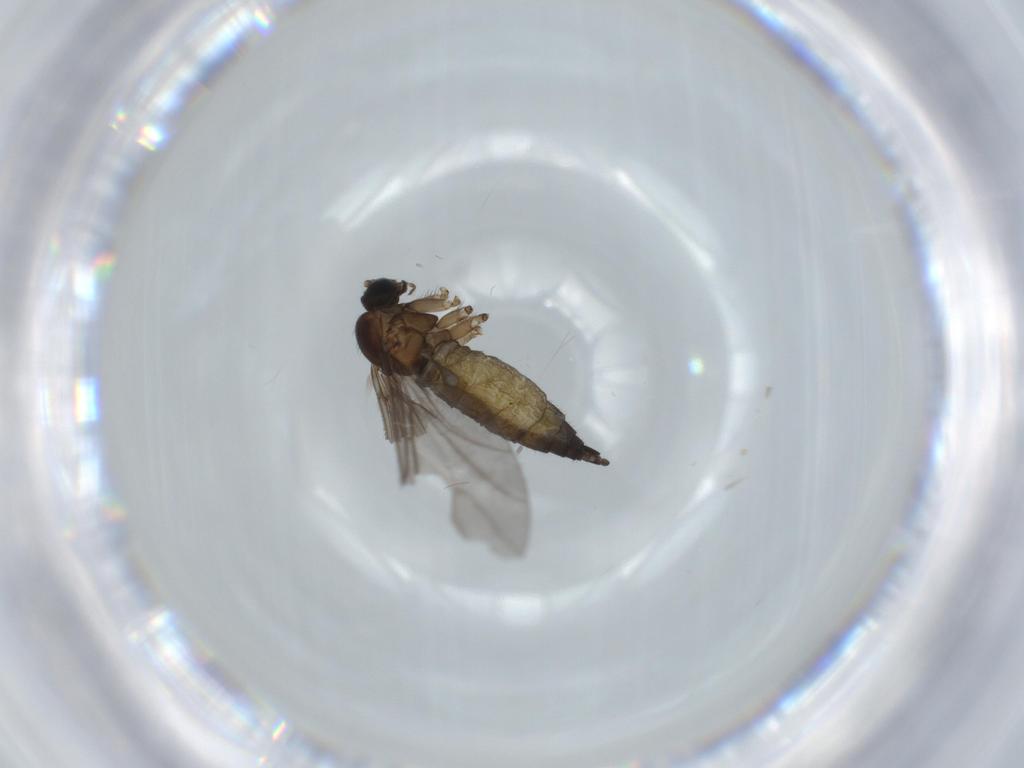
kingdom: Animalia
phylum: Arthropoda
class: Insecta
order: Diptera
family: Sciaridae
